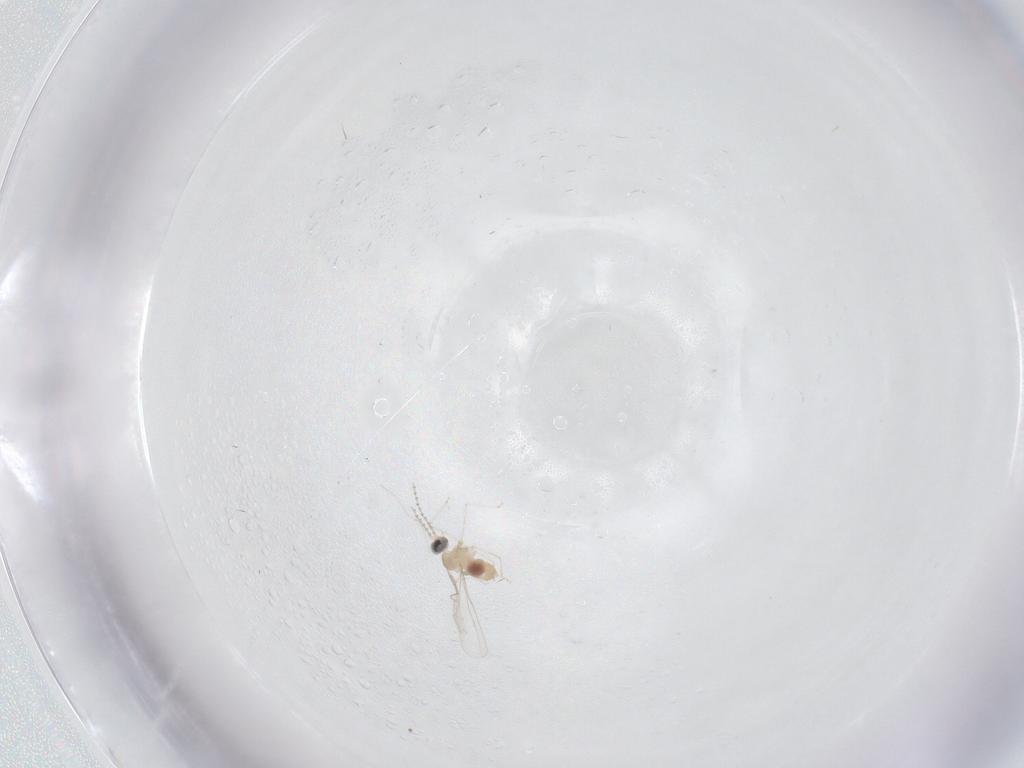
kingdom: Animalia
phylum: Arthropoda
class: Insecta
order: Diptera
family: Cecidomyiidae
